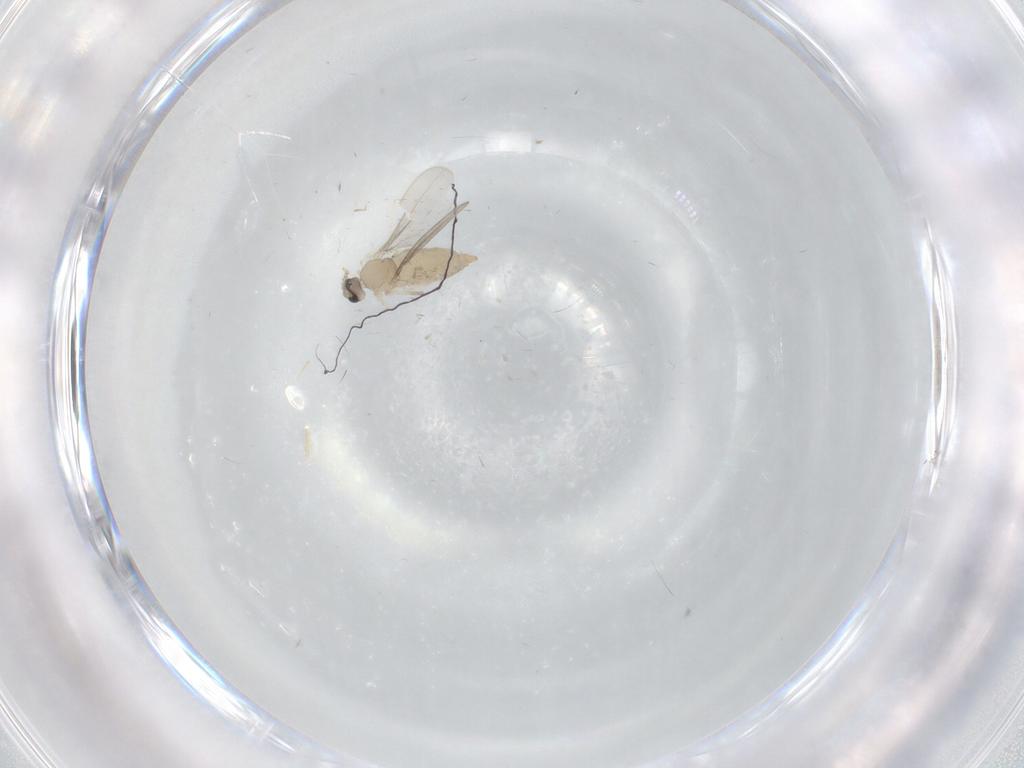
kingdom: Animalia
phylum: Arthropoda
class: Insecta
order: Diptera
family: Cecidomyiidae
